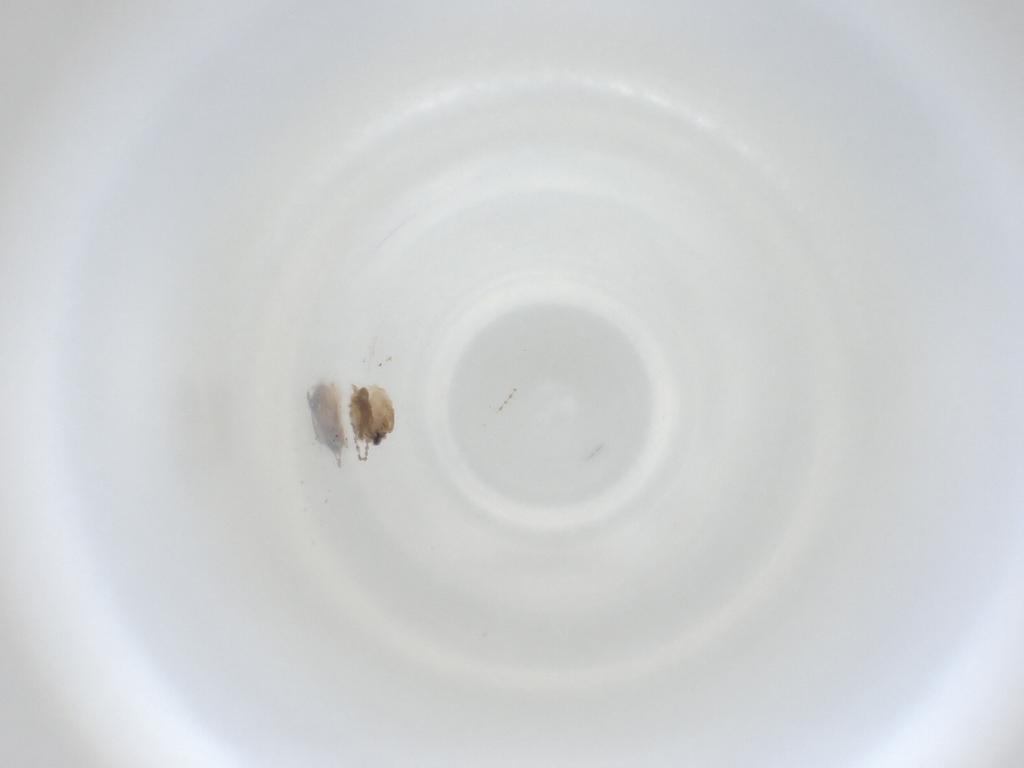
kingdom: Animalia
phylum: Arthropoda
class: Insecta
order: Diptera
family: Cecidomyiidae
